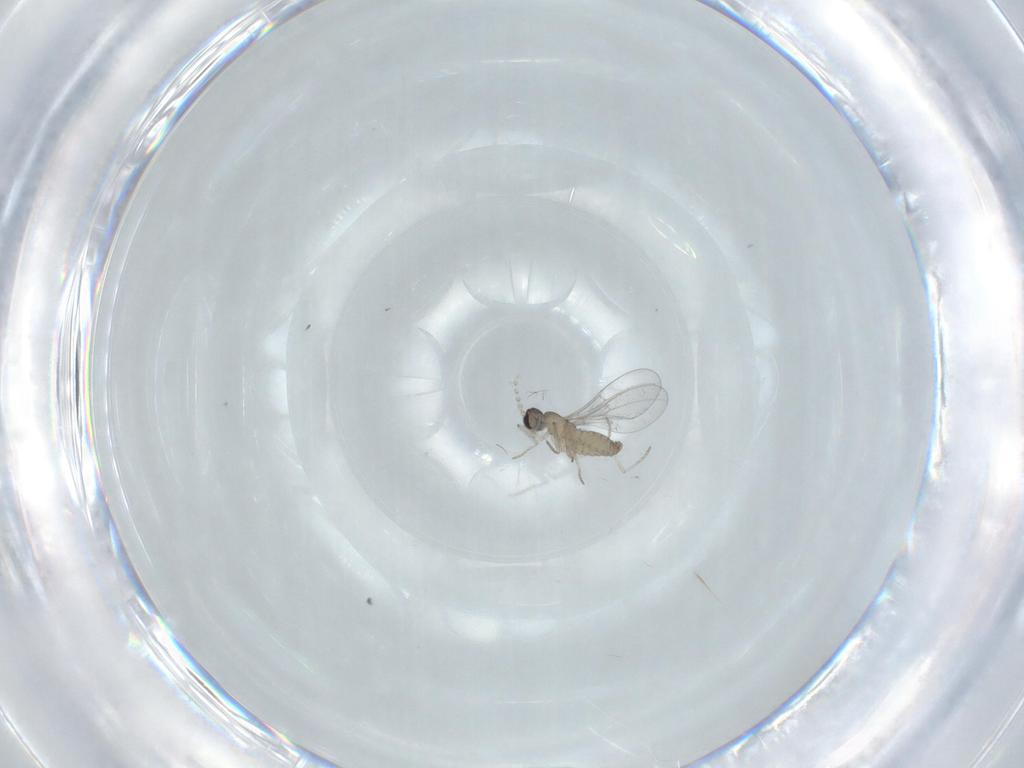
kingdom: Animalia
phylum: Arthropoda
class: Insecta
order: Diptera
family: Cecidomyiidae
